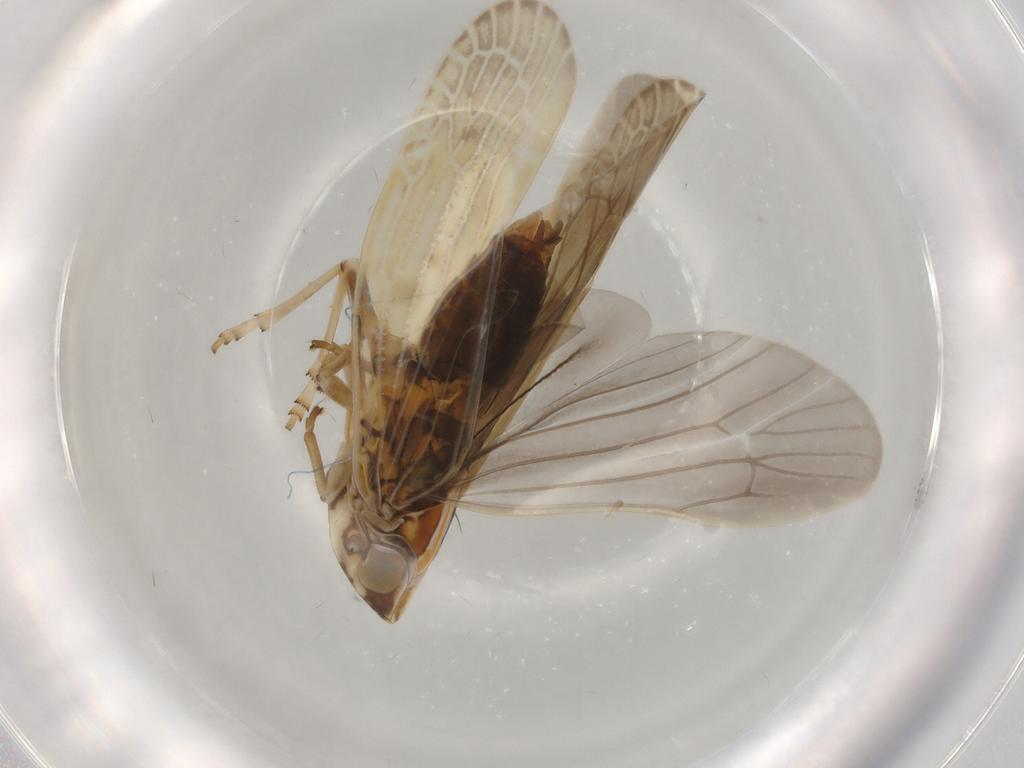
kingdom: Animalia
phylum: Arthropoda
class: Insecta
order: Hemiptera
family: Achilidae
